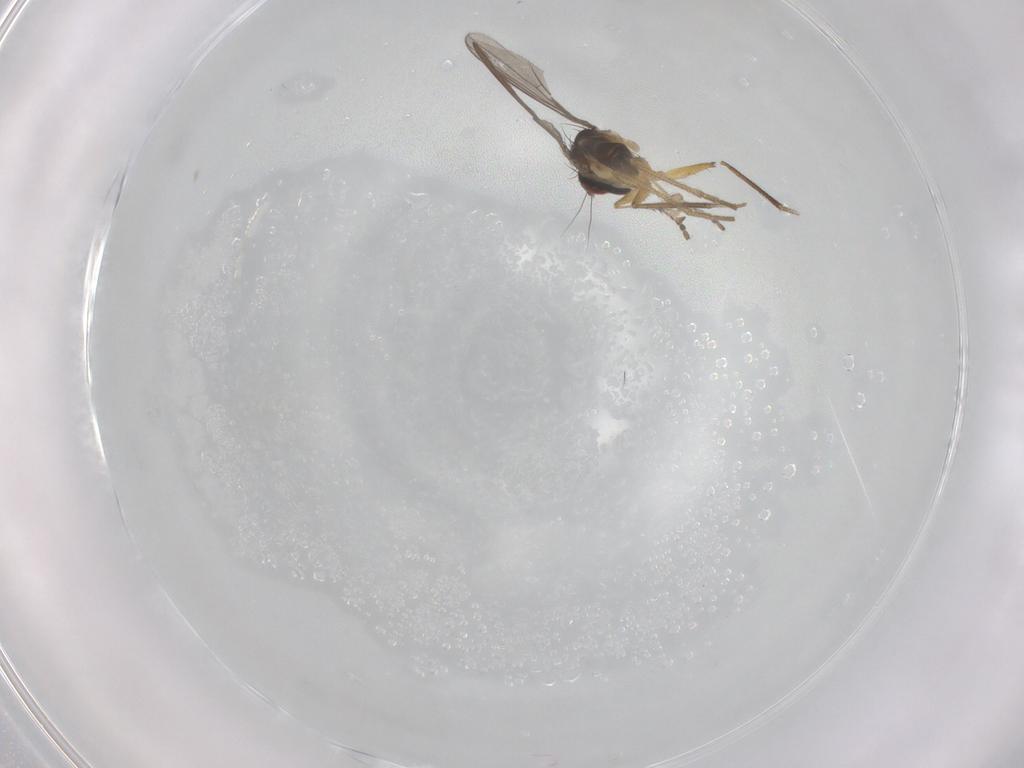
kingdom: Animalia
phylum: Arthropoda
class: Insecta
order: Diptera
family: Dolichopodidae
